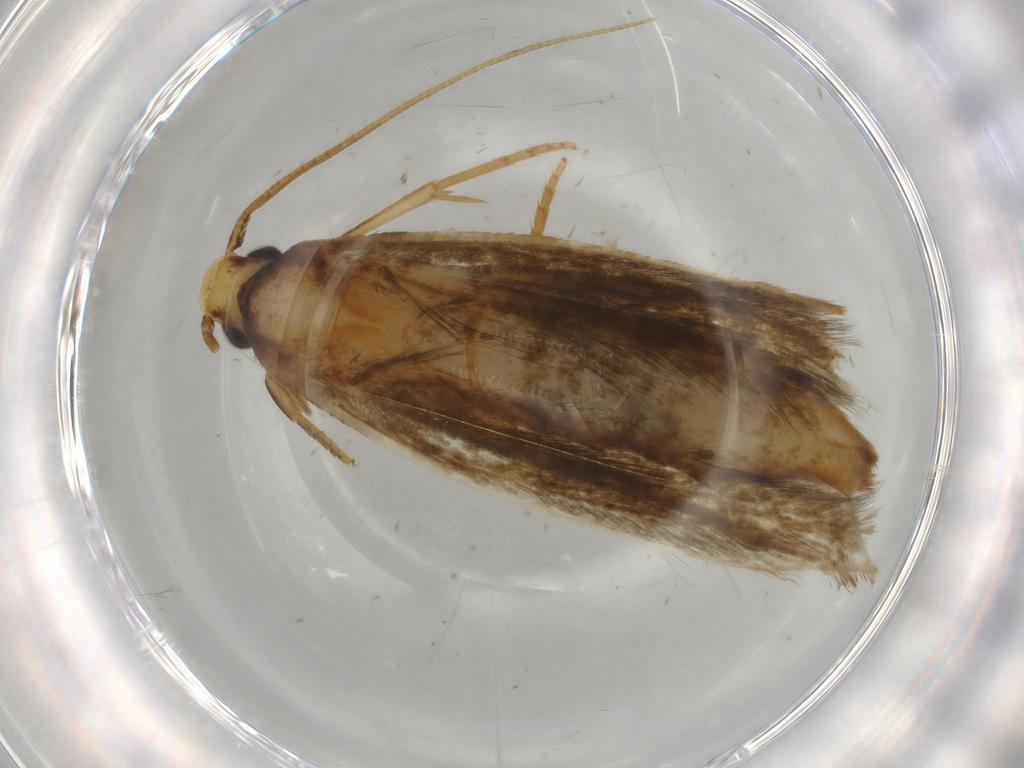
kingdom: Animalia
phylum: Arthropoda
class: Insecta
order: Lepidoptera
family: Tineidae
